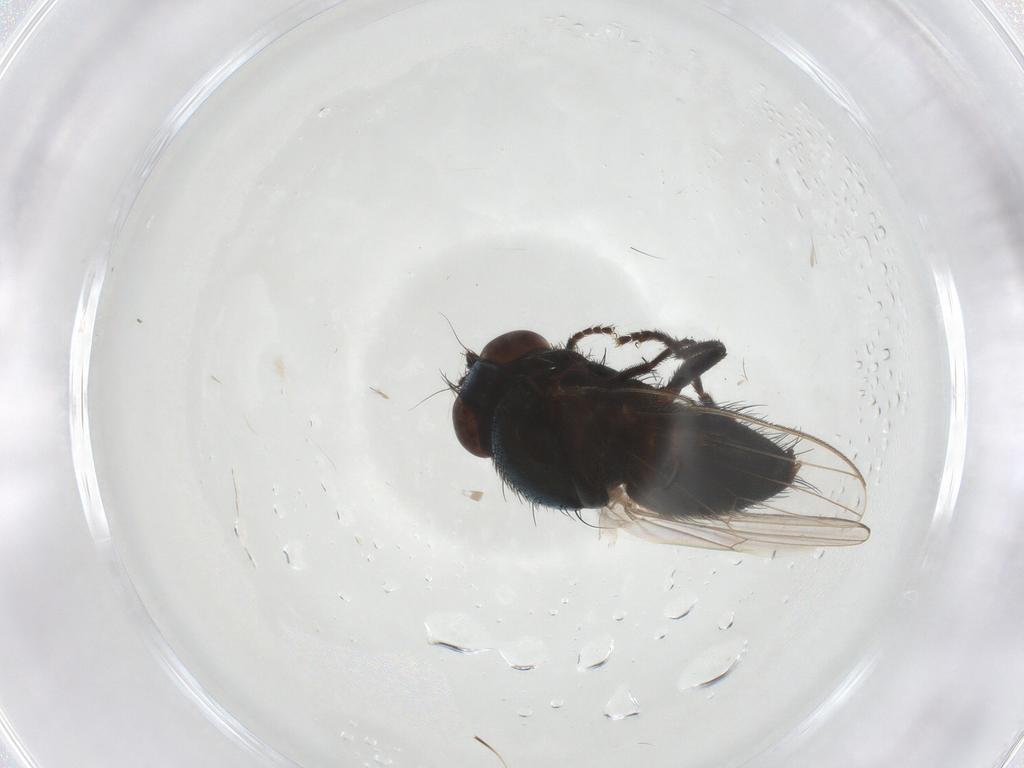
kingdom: Animalia
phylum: Arthropoda
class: Insecta
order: Diptera
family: Chloropidae
